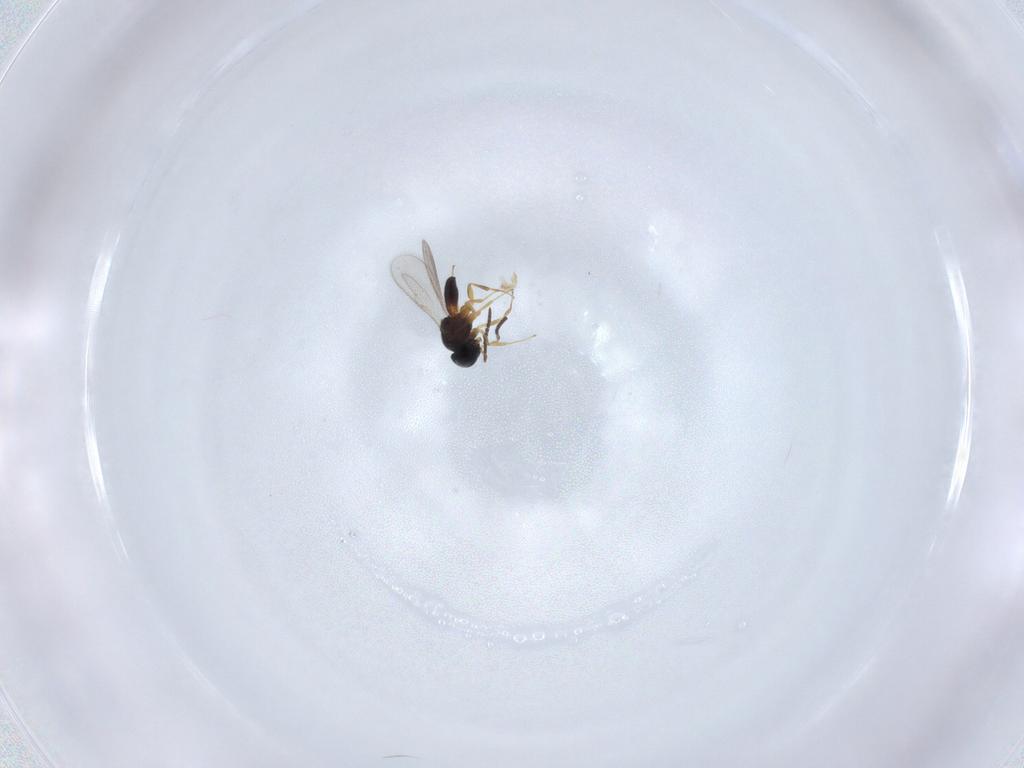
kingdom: Animalia
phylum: Arthropoda
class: Insecta
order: Hymenoptera
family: Scelionidae
